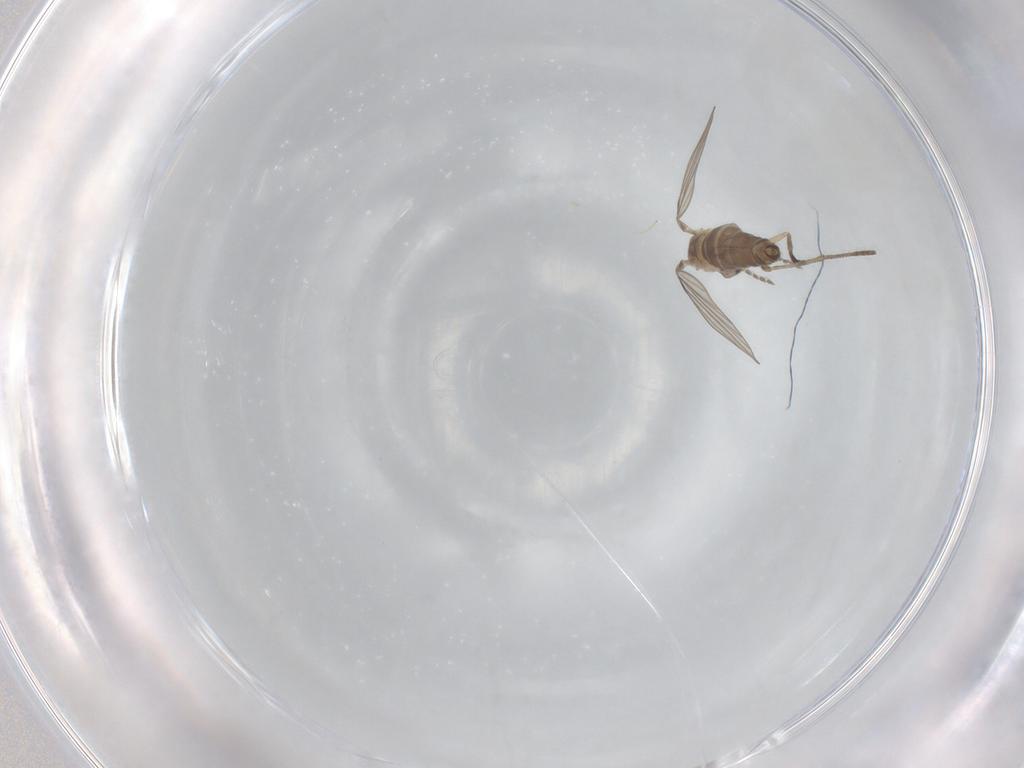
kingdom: Animalia
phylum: Arthropoda
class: Insecta
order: Diptera
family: Psychodidae
